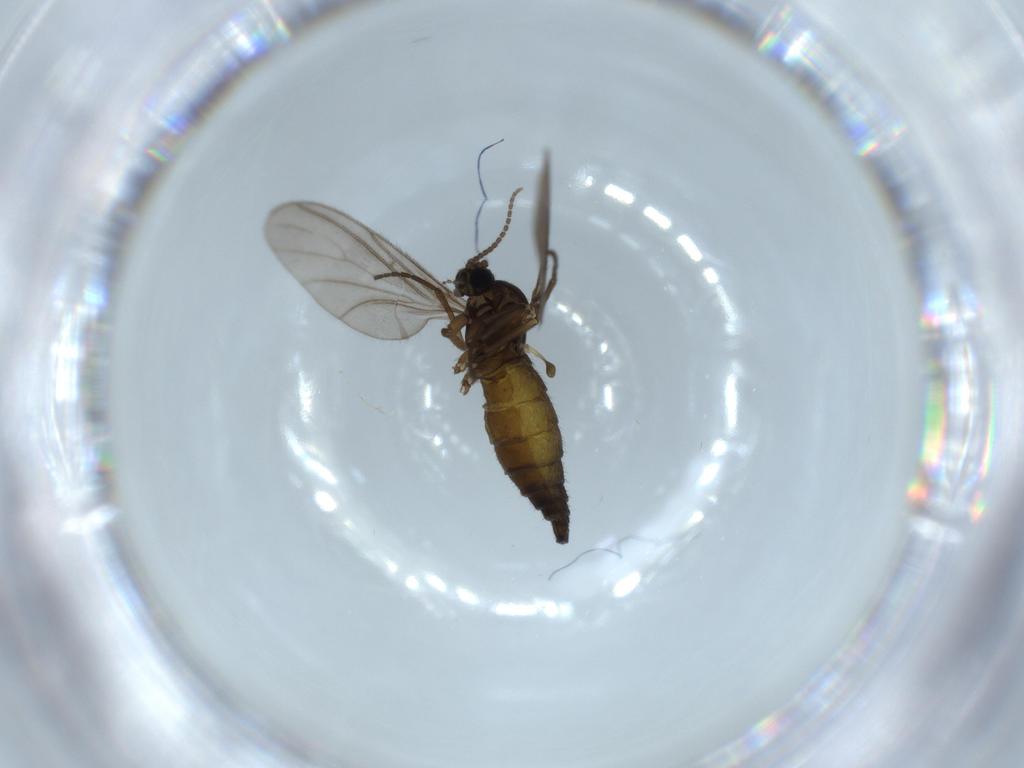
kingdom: Animalia
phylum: Arthropoda
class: Insecta
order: Diptera
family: Sciaridae
